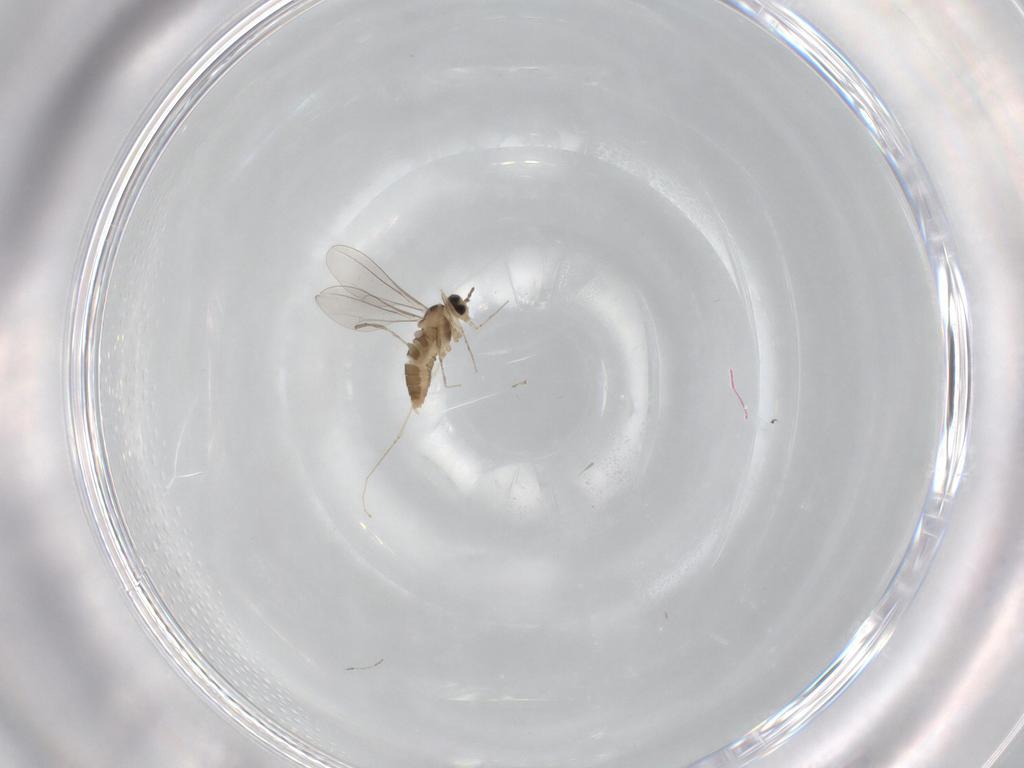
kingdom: Animalia
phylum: Arthropoda
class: Insecta
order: Diptera
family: Cecidomyiidae
